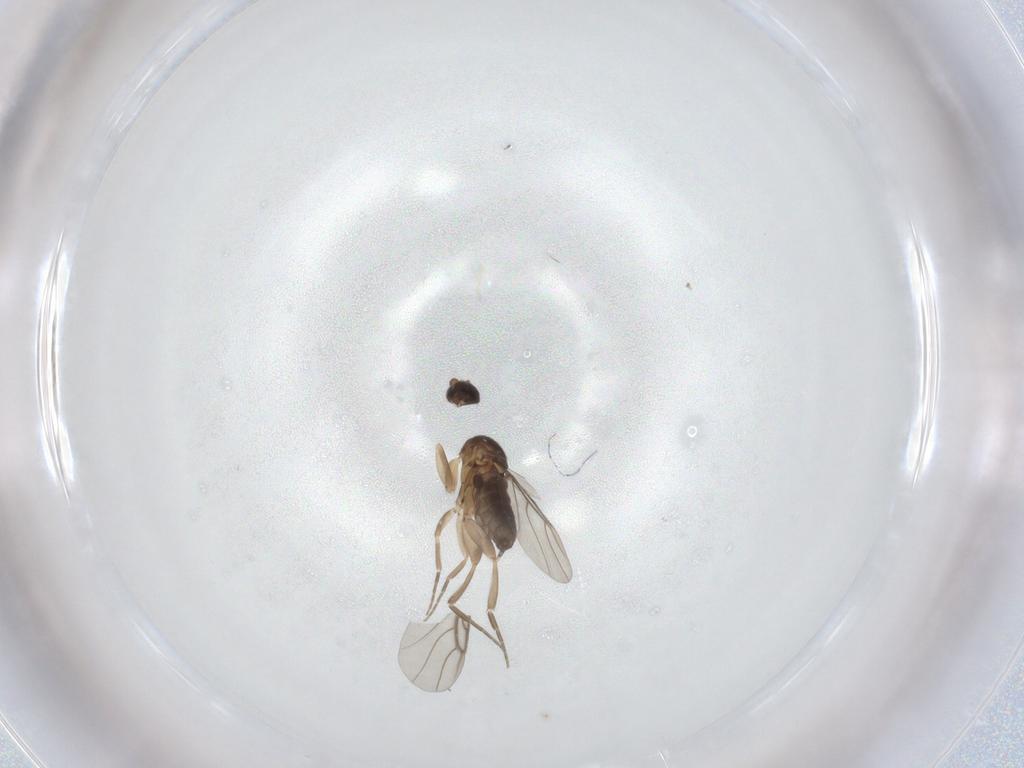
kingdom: Animalia
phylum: Arthropoda
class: Insecta
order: Diptera
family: Phoridae
